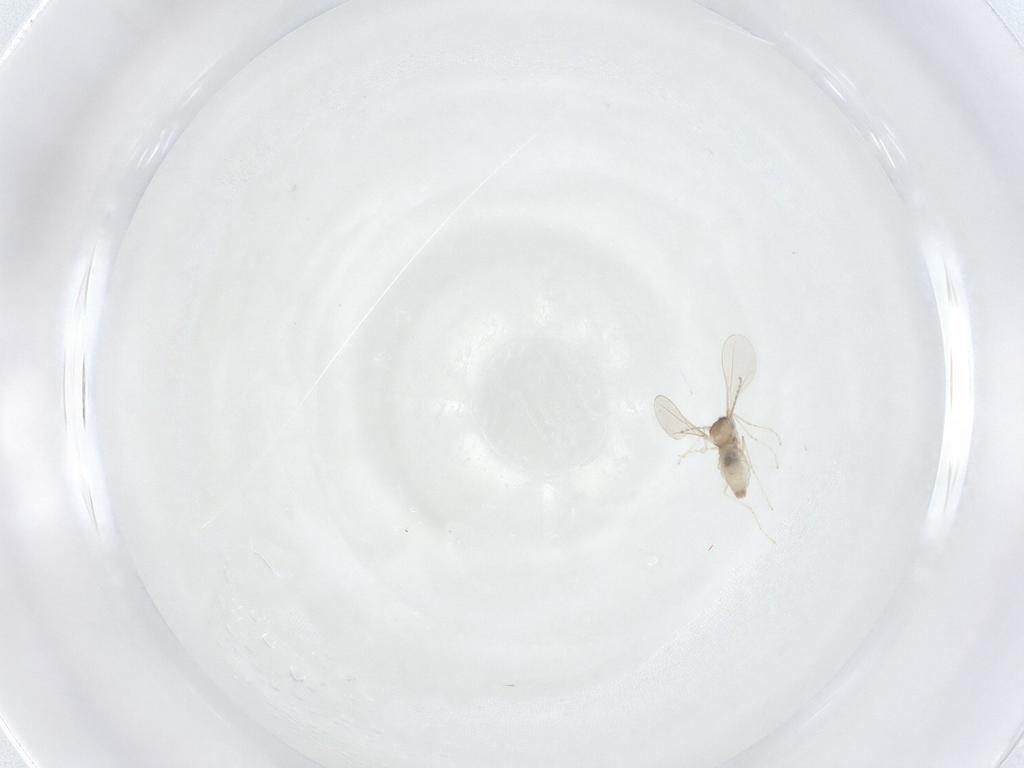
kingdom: Animalia
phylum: Arthropoda
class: Insecta
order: Diptera
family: Cecidomyiidae
